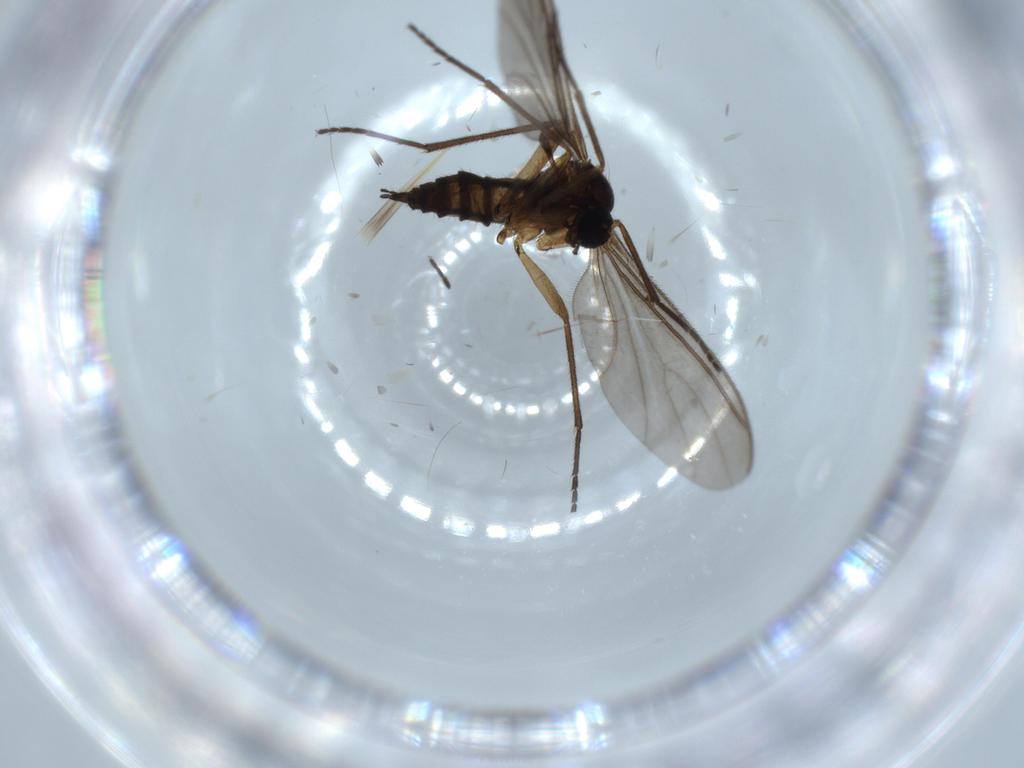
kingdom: Animalia
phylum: Arthropoda
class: Insecta
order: Diptera
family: Sciaridae
